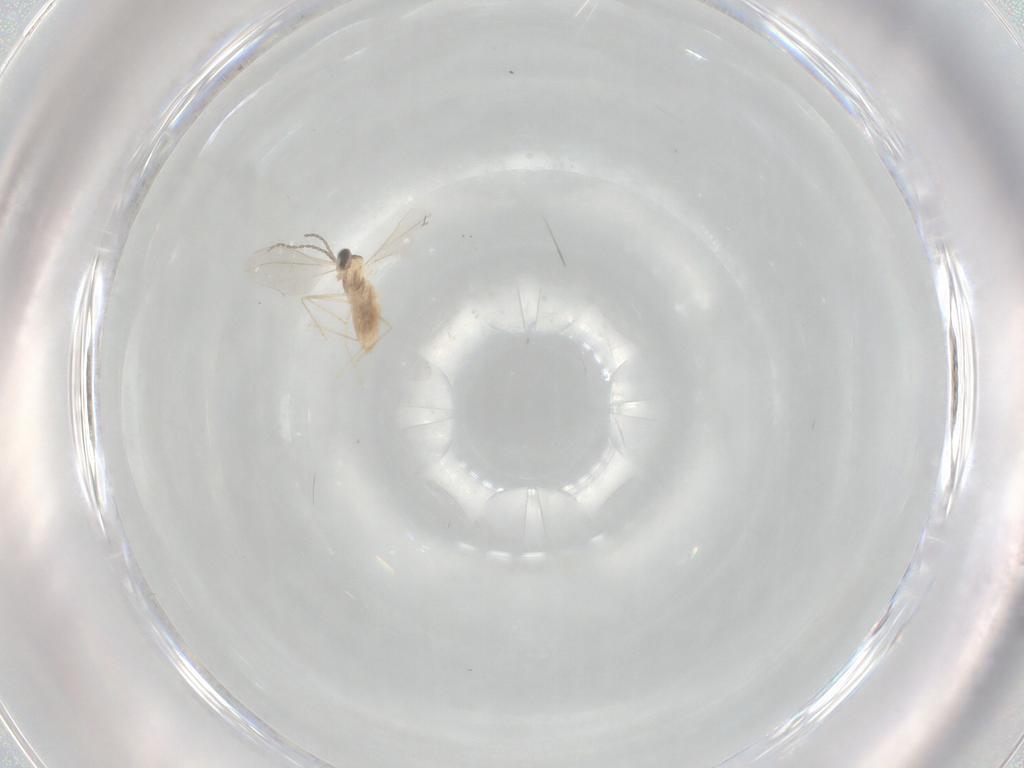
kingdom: Animalia
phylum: Arthropoda
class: Insecta
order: Diptera
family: Cecidomyiidae
